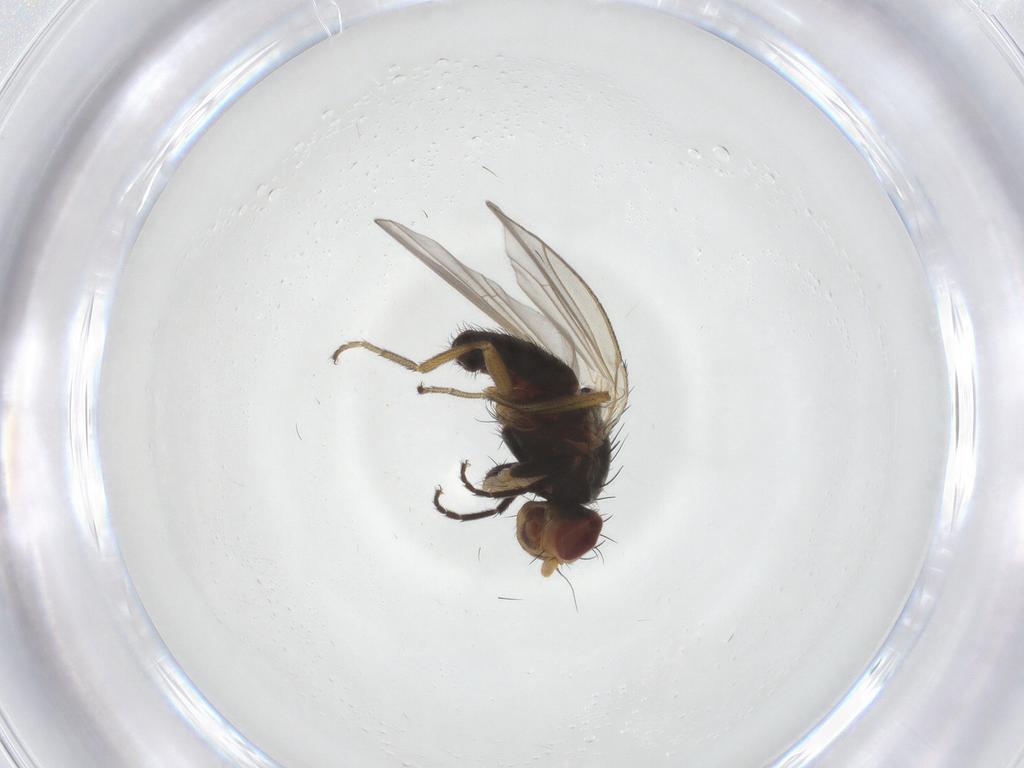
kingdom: Animalia
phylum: Arthropoda
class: Insecta
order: Diptera
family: Heleomyzidae
